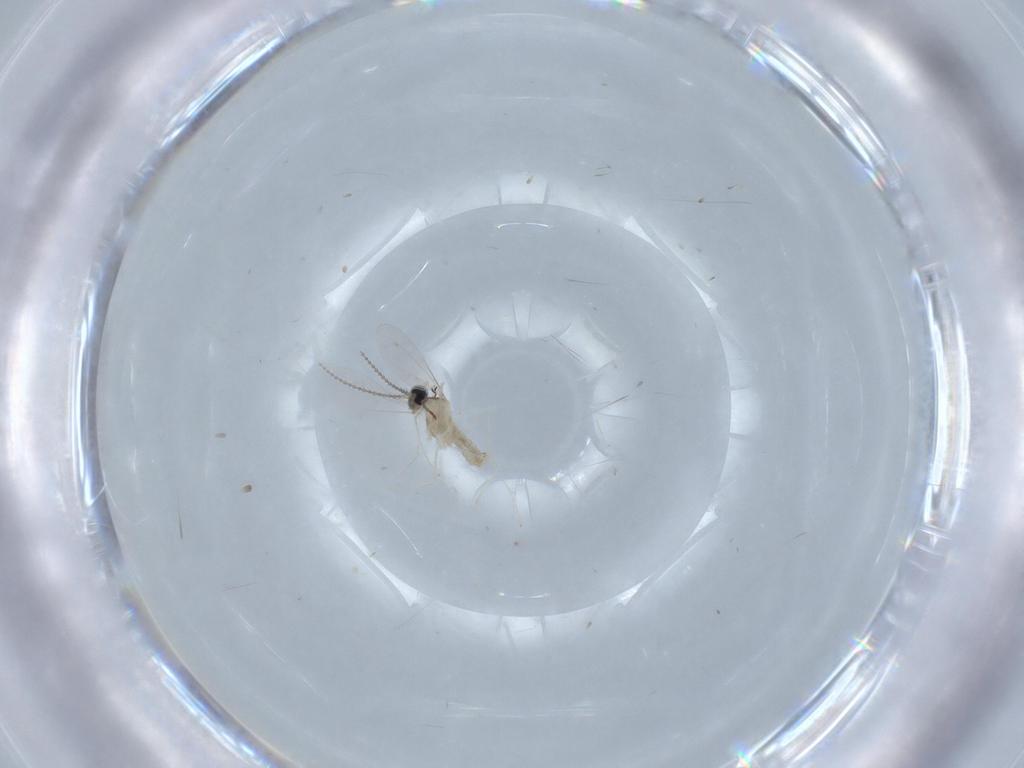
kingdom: Animalia
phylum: Arthropoda
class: Insecta
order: Diptera
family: Cecidomyiidae
